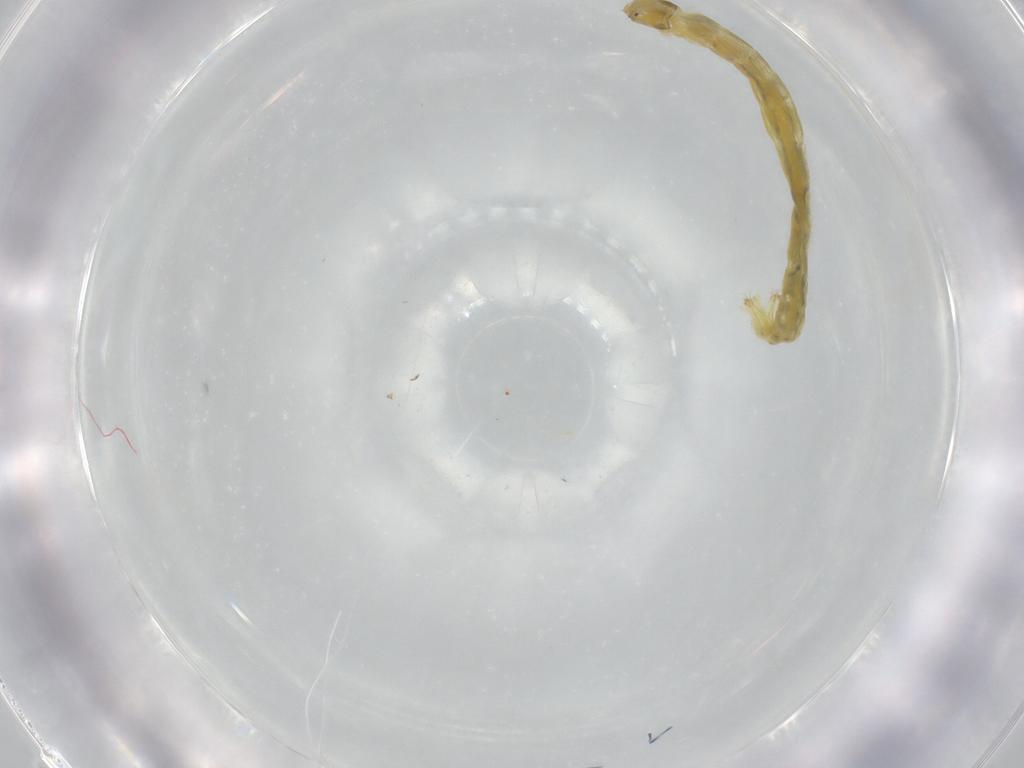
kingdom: Animalia
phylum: Arthropoda
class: Insecta
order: Diptera
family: Chironomidae
